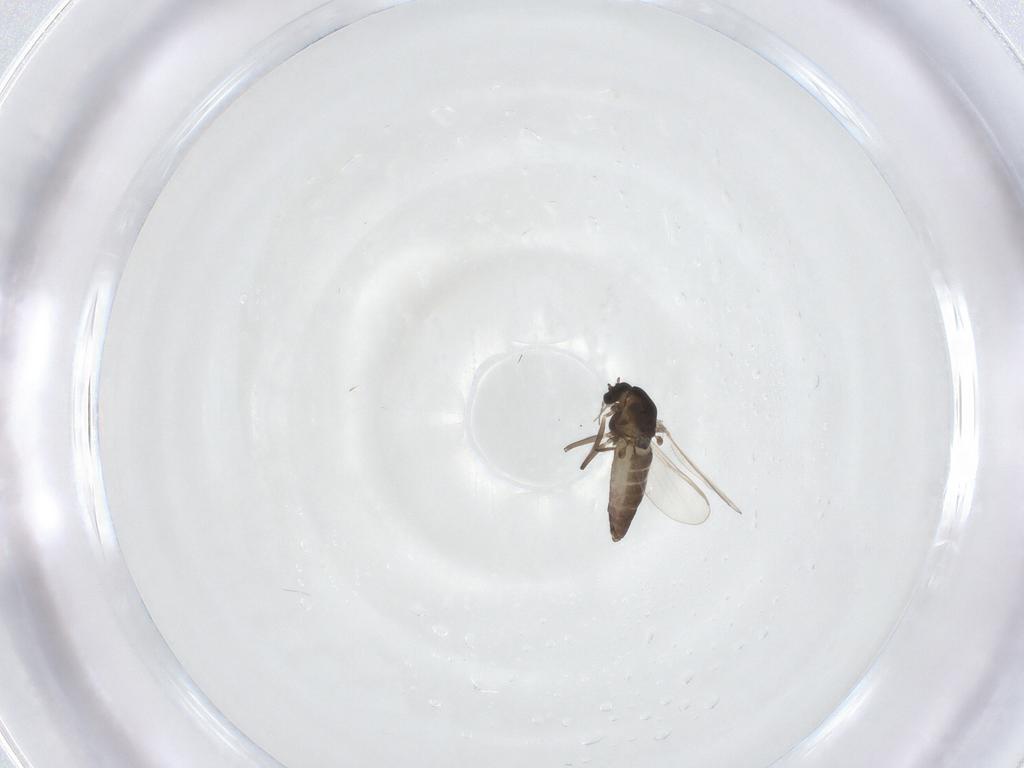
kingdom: Animalia
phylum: Arthropoda
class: Insecta
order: Diptera
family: Chironomidae
